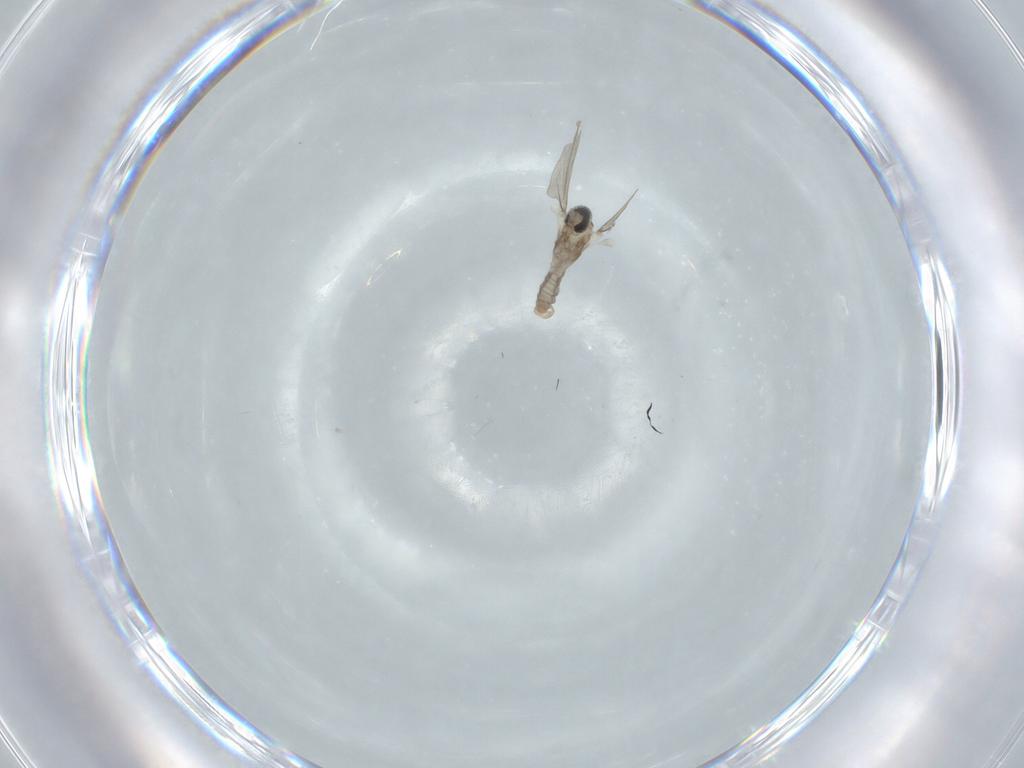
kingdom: Animalia
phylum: Arthropoda
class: Insecta
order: Diptera
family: Cecidomyiidae
